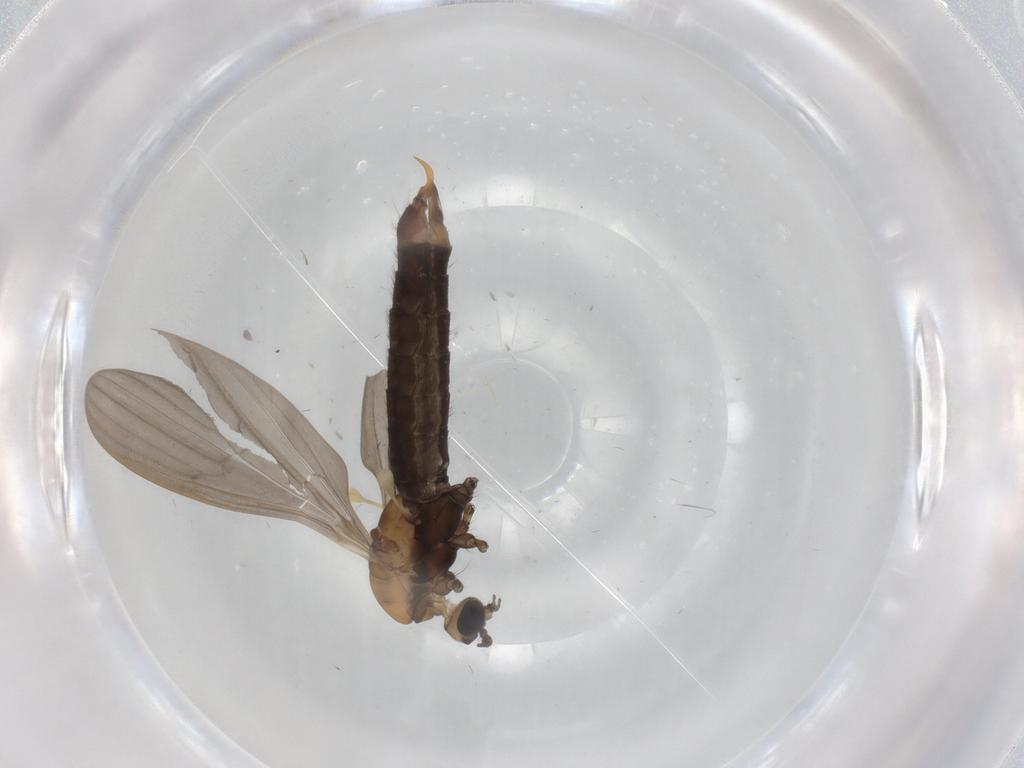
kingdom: Animalia
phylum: Arthropoda
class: Insecta
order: Diptera
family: Limoniidae
